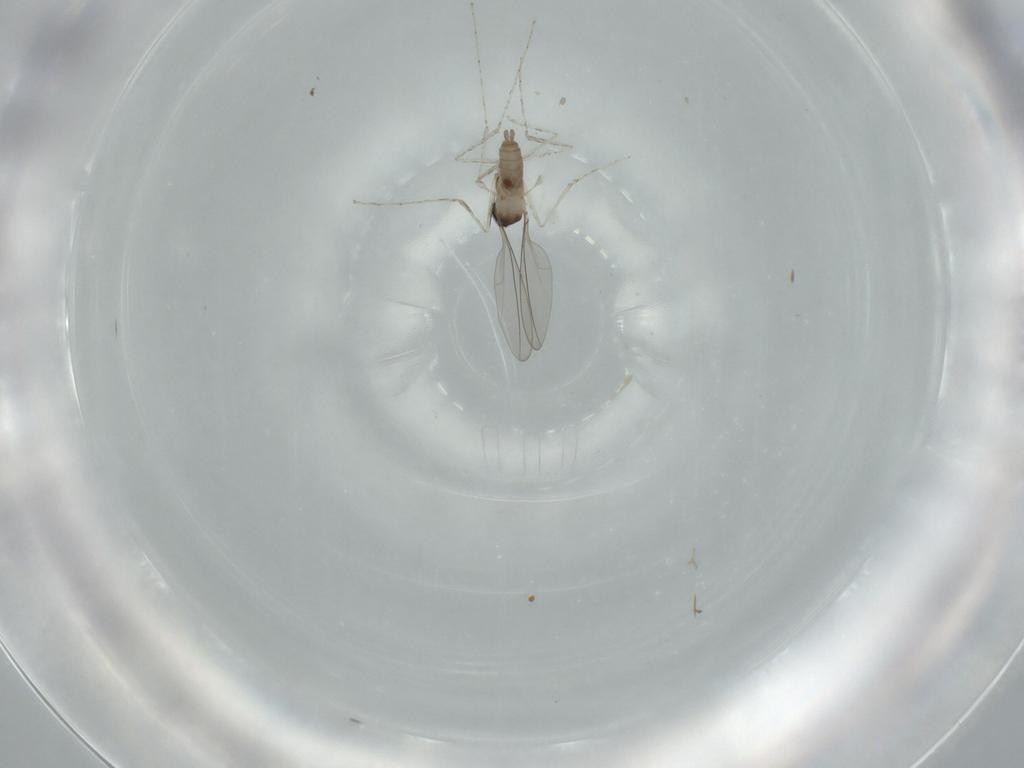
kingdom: Animalia
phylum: Arthropoda
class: Insecta
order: Diptera
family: Cecidomyiidae
